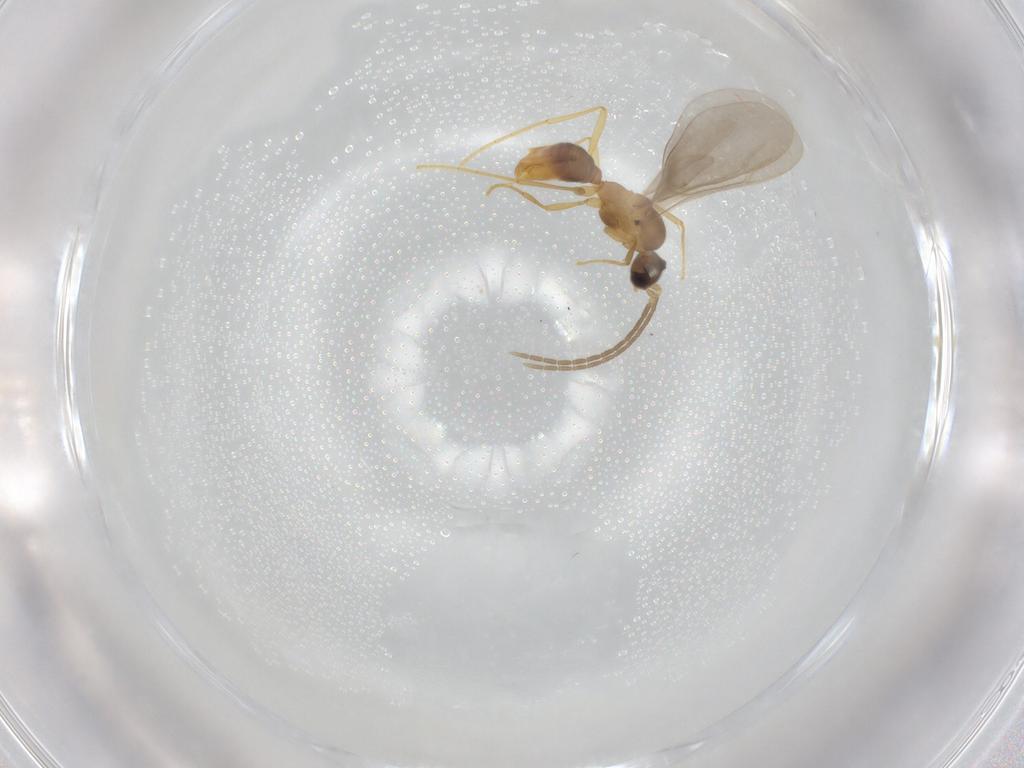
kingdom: Animalia
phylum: Arthropoda
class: Insecta
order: Hymenoptera
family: Formicidae
